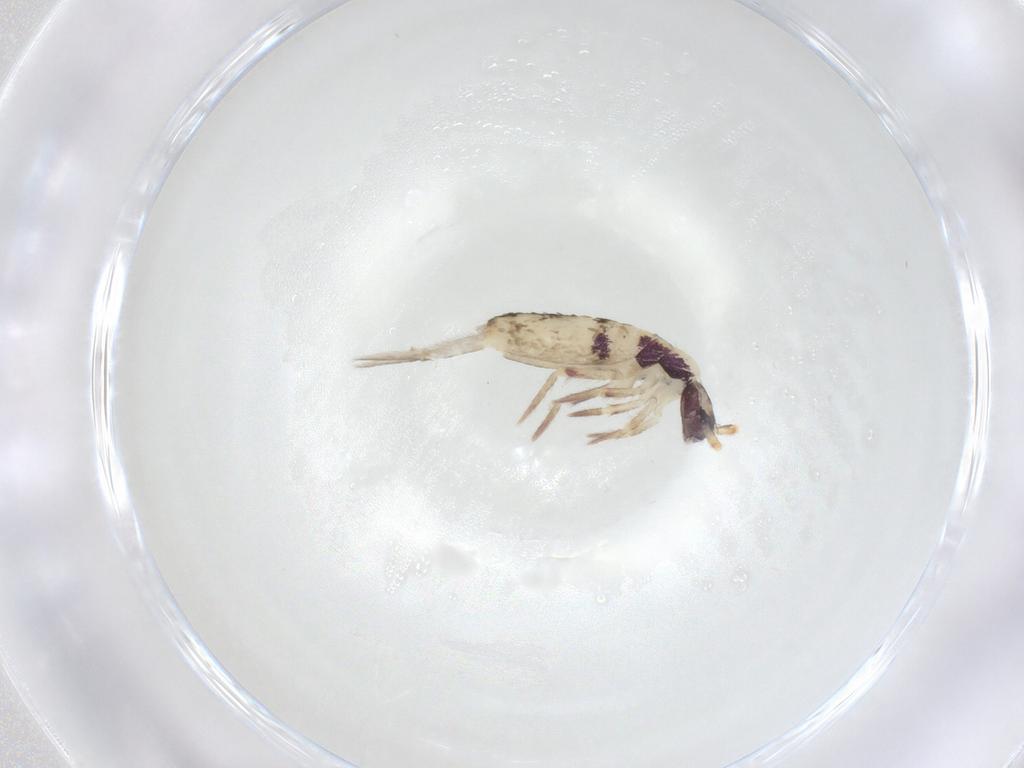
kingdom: Animalia
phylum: Arthropoda
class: Collembola
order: Entomobryomorpha
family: Entomobryidae
